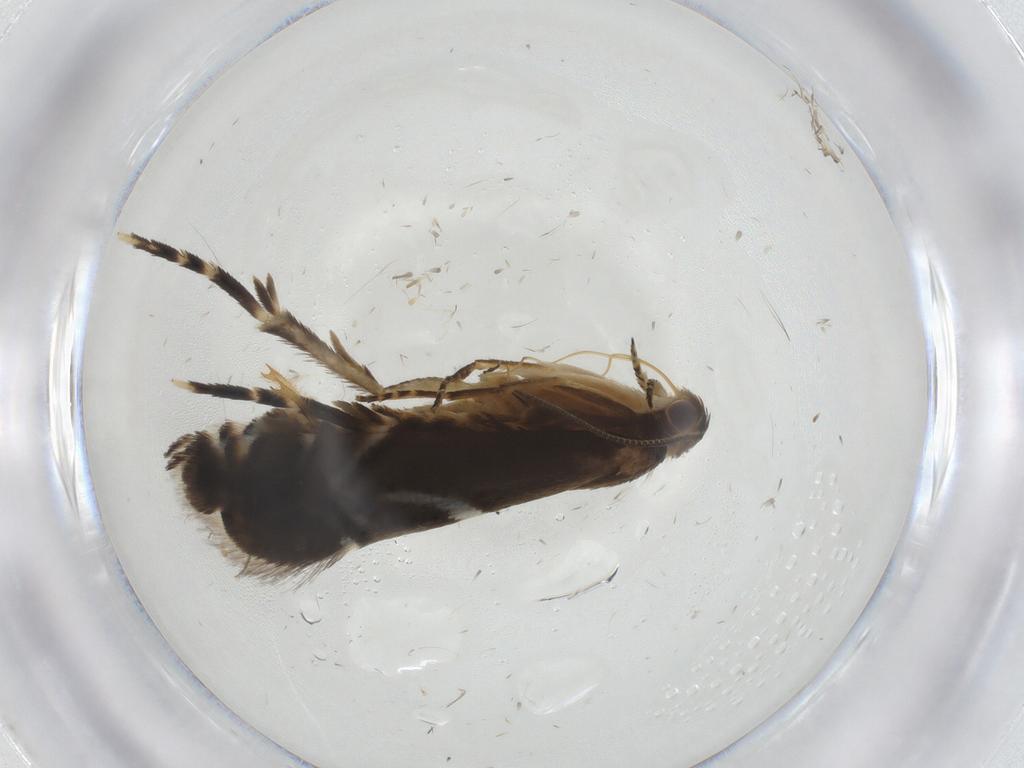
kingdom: Animalia
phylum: Arthropoda
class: Insecta
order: Lepidoptera
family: Glyphipterigidae
